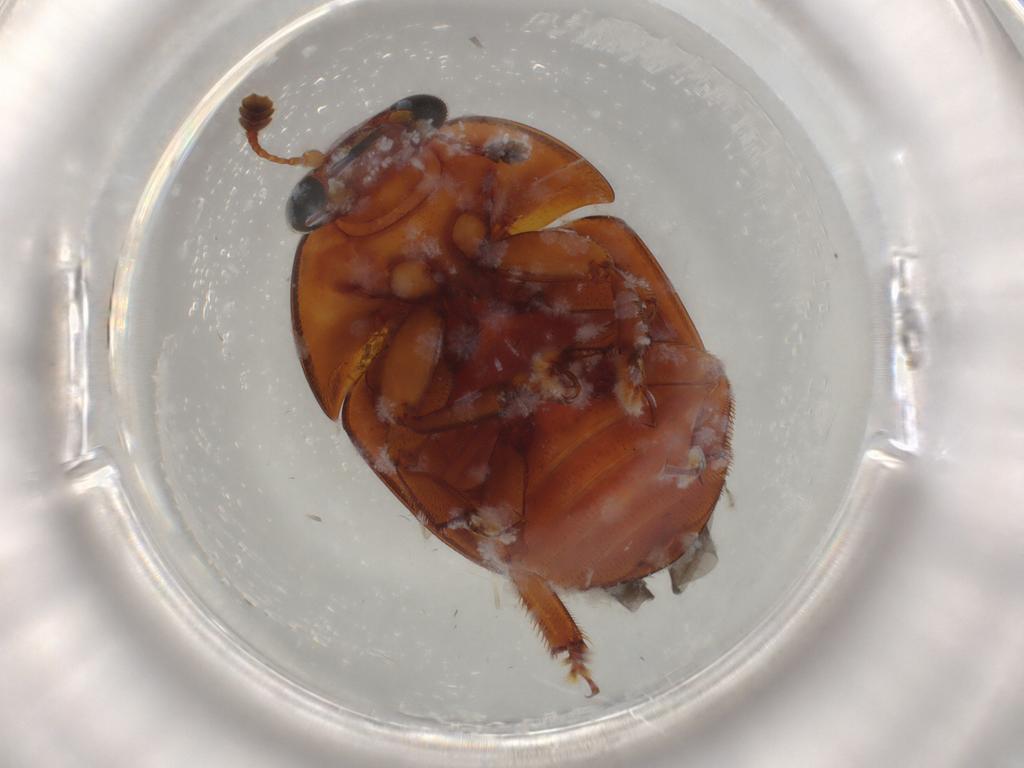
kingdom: Animalia
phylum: Arthropoda
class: Insecta
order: Coleoptera
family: Nitidulidae
